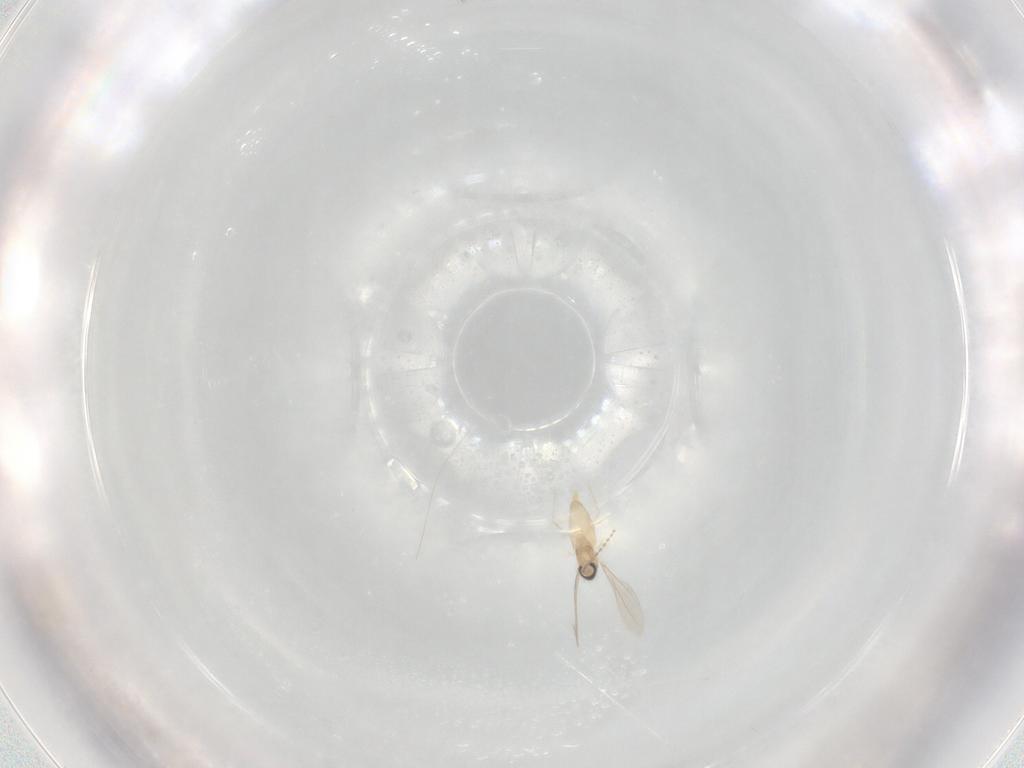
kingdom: Animalia
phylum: Arthropoda
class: Insecta
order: Diptera
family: Cecidomyiidae
